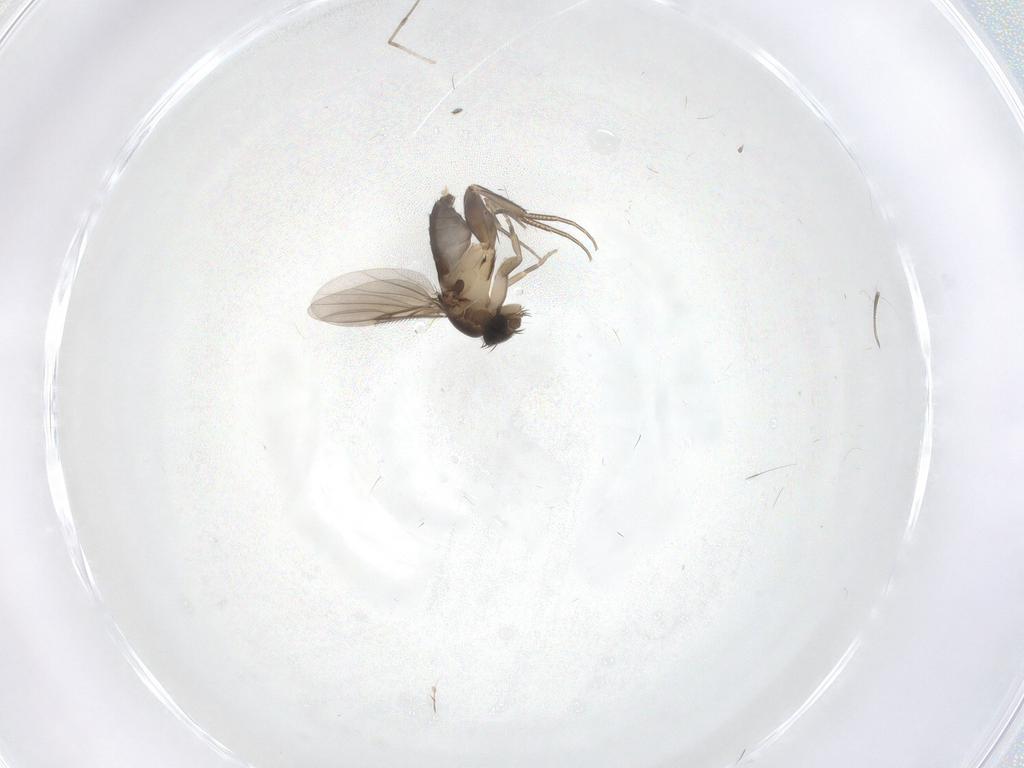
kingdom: Animalia
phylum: Arthropoda
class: Insecta
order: Diptera
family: Phoridae
